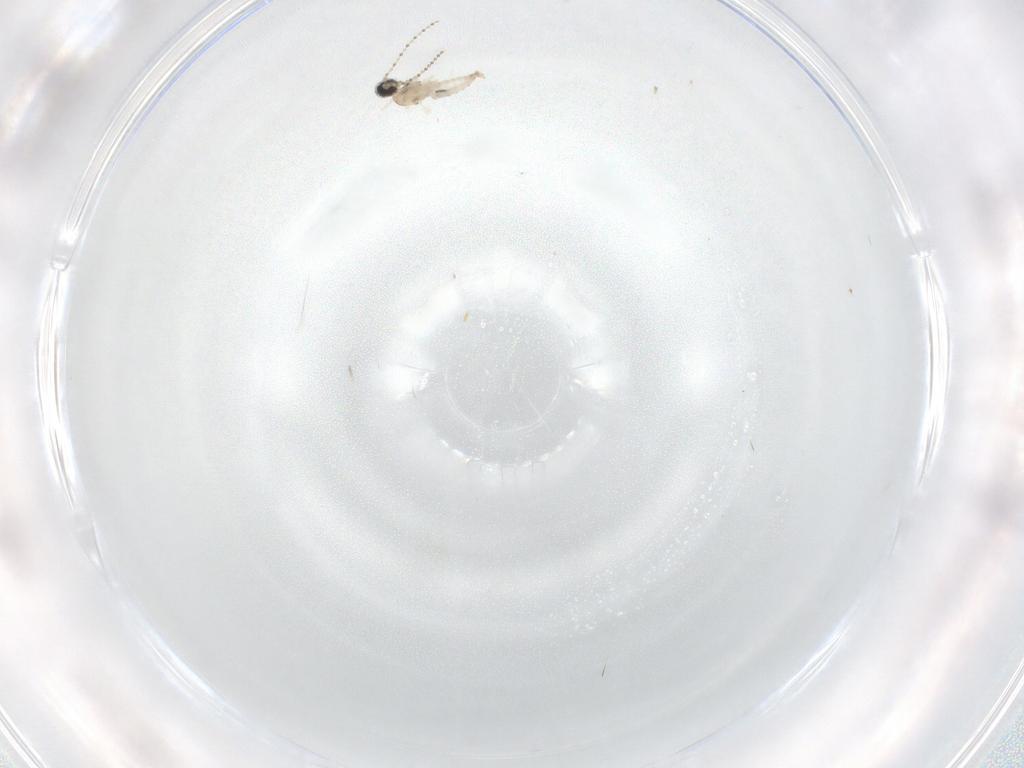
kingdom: Animalia
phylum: Arthropoda
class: Insecta
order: Diptera
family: Cecidomyiidae
